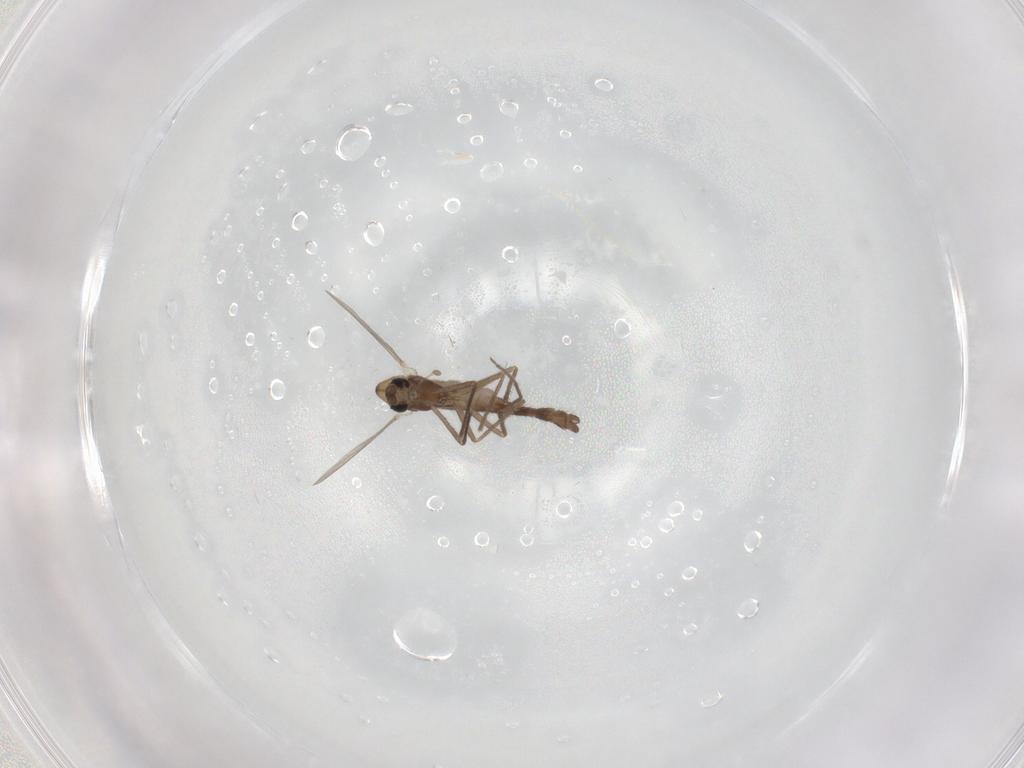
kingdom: Animalia
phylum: Arthropoda
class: Insecta
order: Diptera
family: Chironomidae
